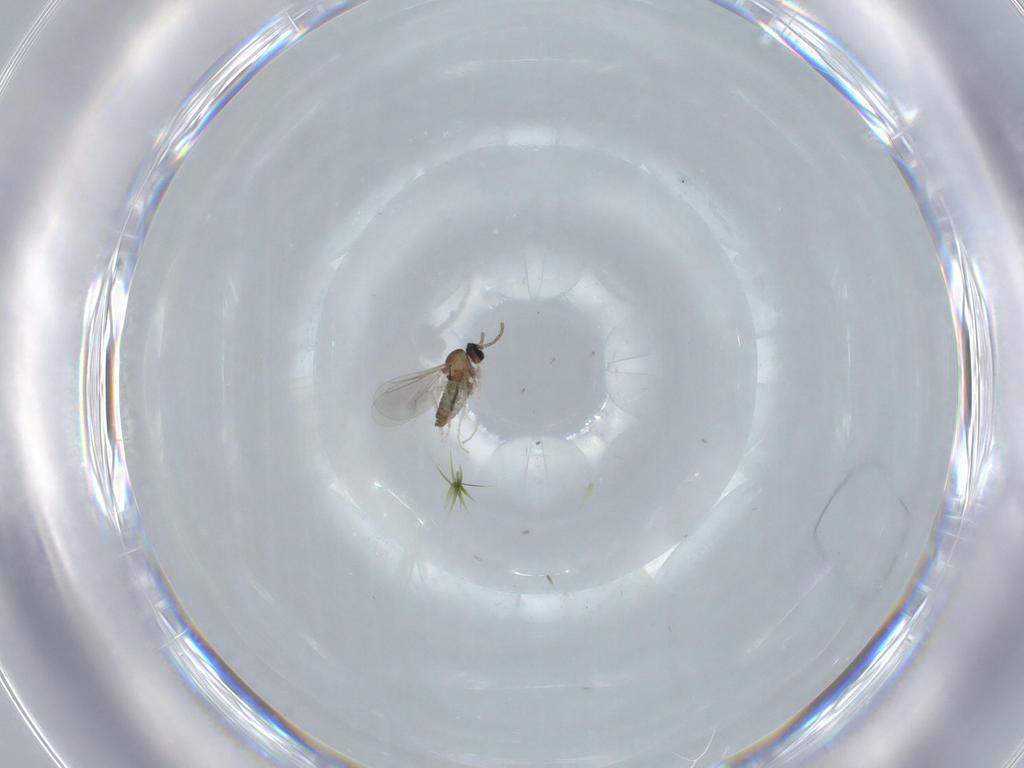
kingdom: Animalia
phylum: Arthropoda
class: Insecta
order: Diptera
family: Cecidomyiidae
